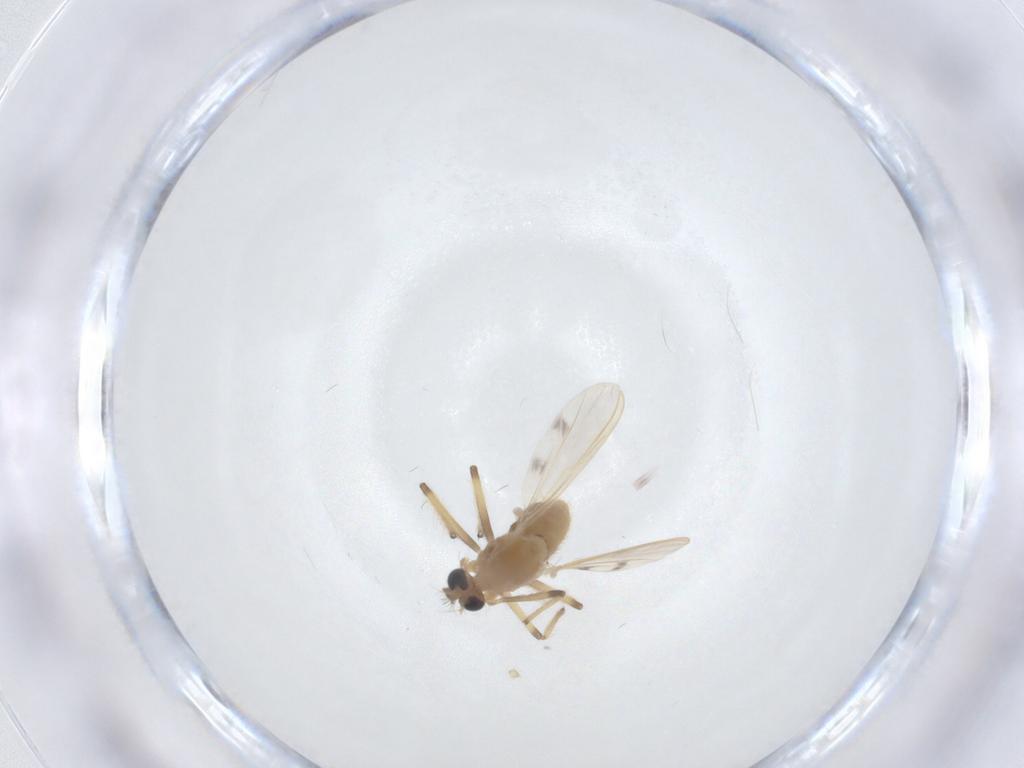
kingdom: Animalia
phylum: Arthropoda
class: Insecta
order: Diptera
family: Chironomidae
